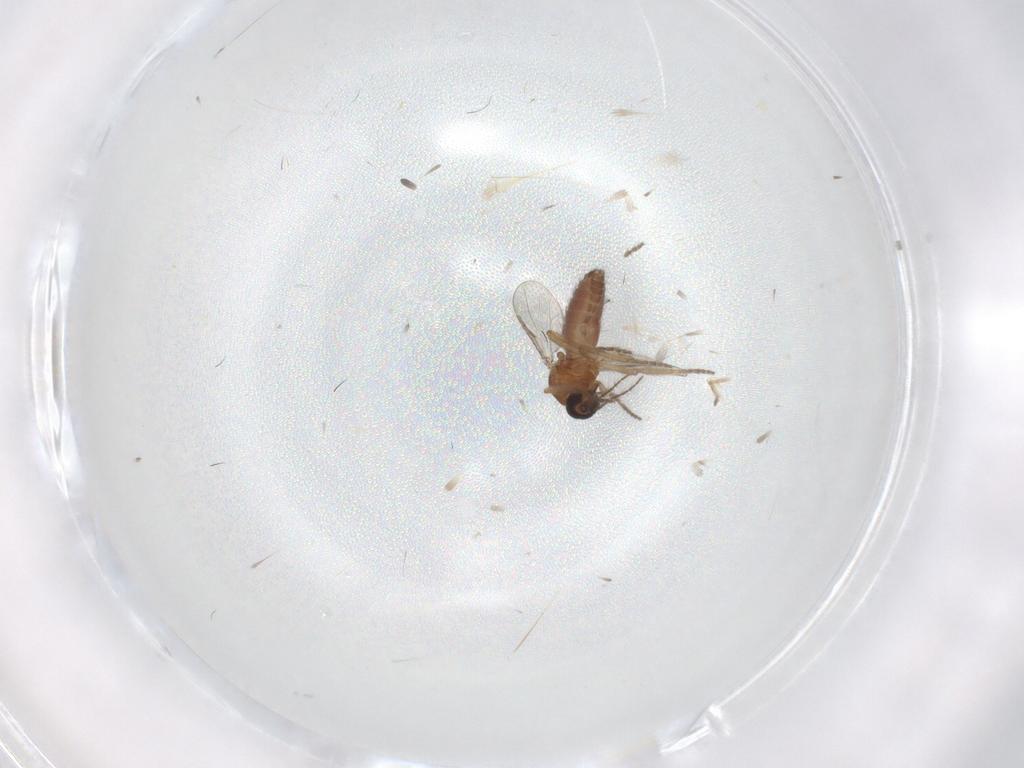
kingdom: Animalia
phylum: Arthropoda
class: Insecta
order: Diptera
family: Ceratopogonidae
